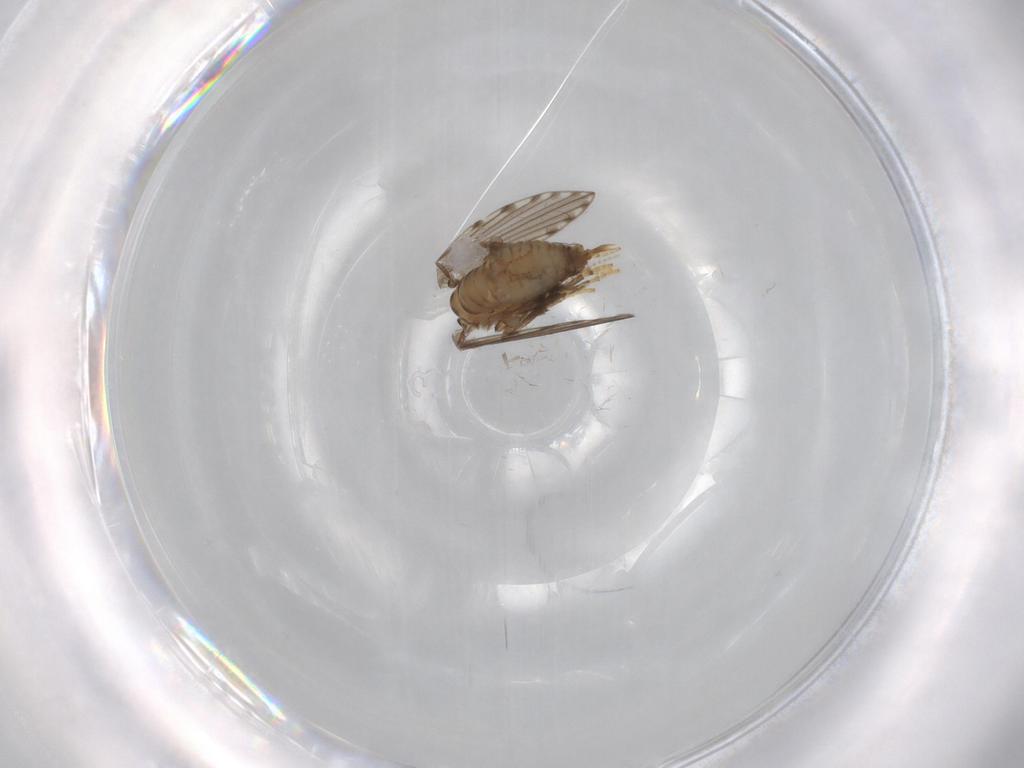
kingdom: Animalia
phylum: Arthropoda
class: Insecta
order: Diptera
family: Psychodidae
